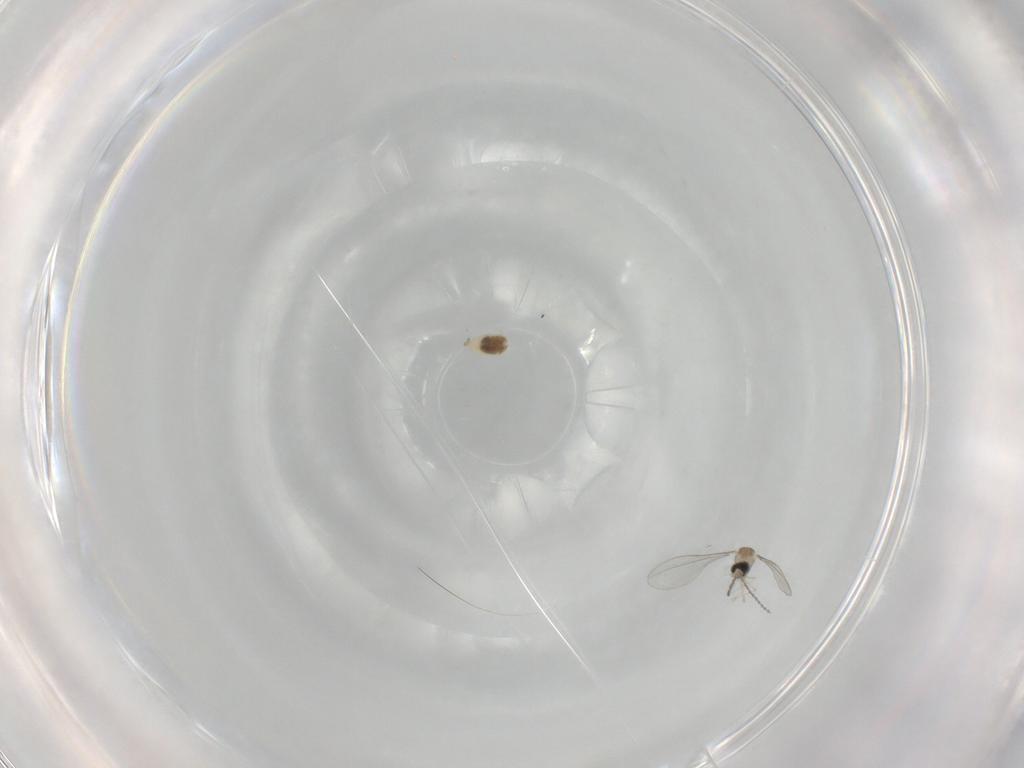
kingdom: Animalia
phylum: Arthropoda
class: Insecta
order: Diptera
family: Cecidomyiidae
